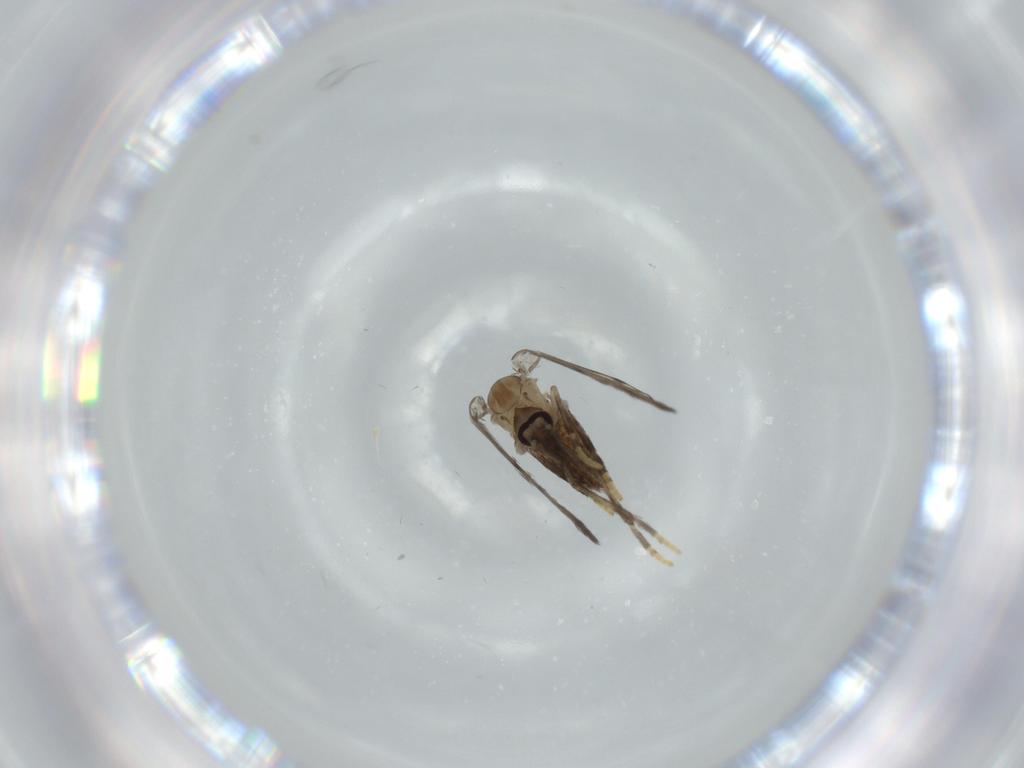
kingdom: Animalia
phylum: Arthropoda
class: Insecta
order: Diptera
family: Psychodidae
